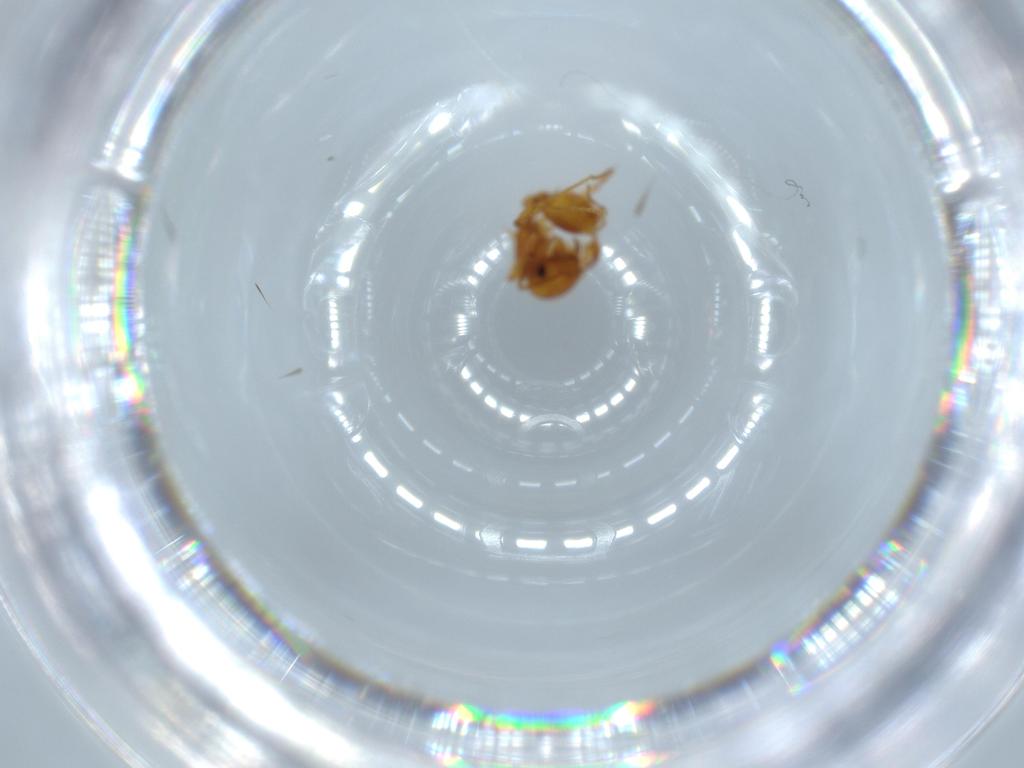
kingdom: Animalia
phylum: Arthropoda
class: Insecta
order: Hymenoptera
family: Formicidae
